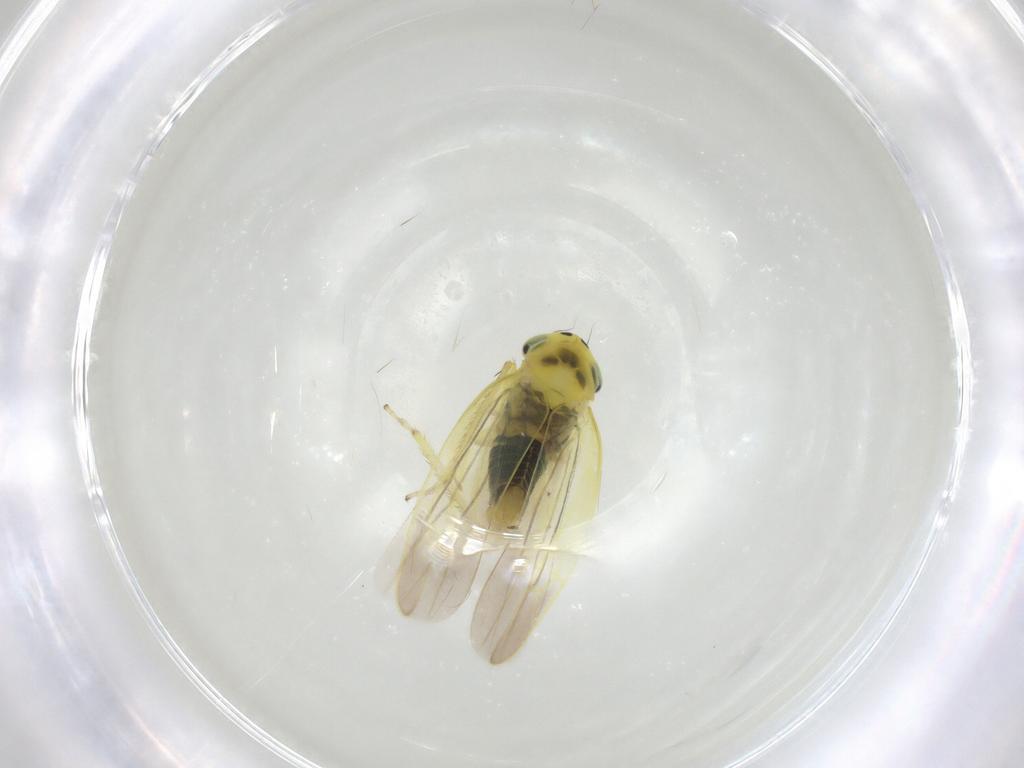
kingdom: Animalia
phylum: Arthropoda
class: Insecta
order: Hemiptera
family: Cicadellidae
